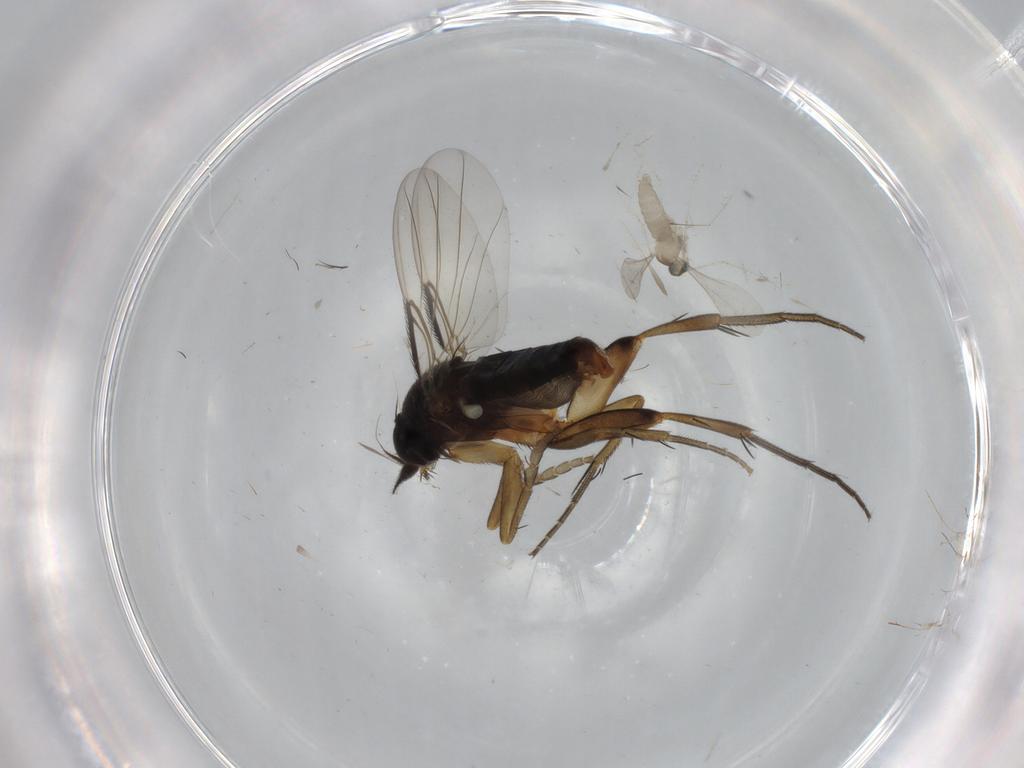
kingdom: Animalia
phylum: Arthropoda
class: Insecta
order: Diptera
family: Phoridae
